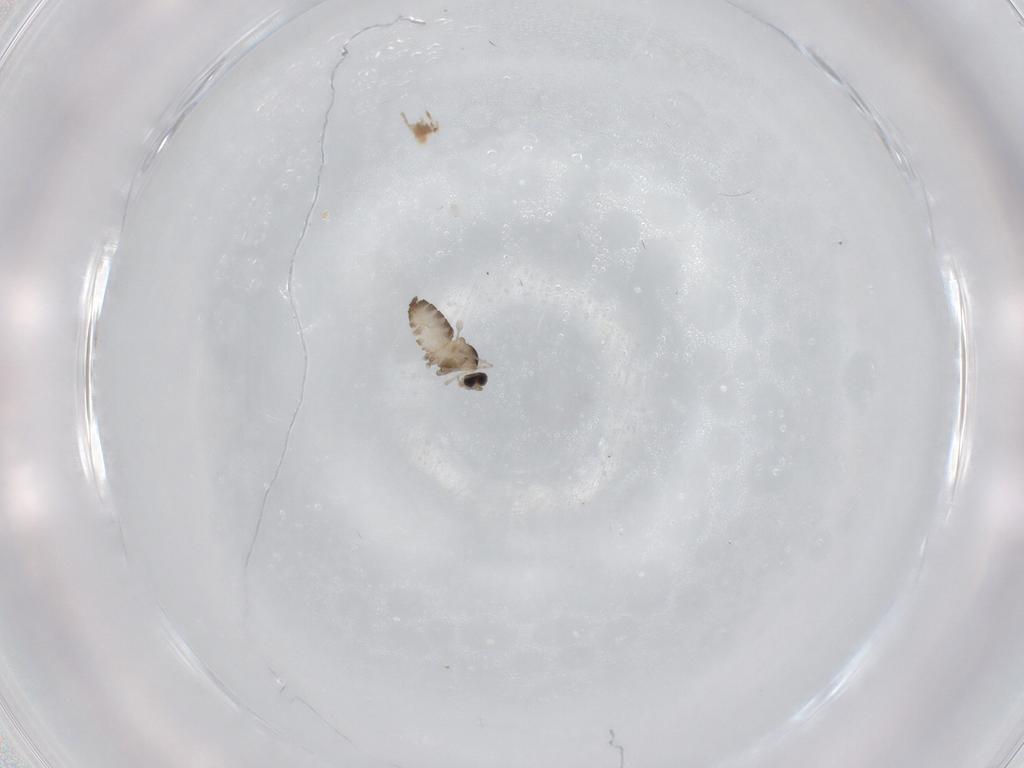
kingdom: Animalia
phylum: Arthropoda
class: Insecta
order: Diptera
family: Cecidomyiidae
